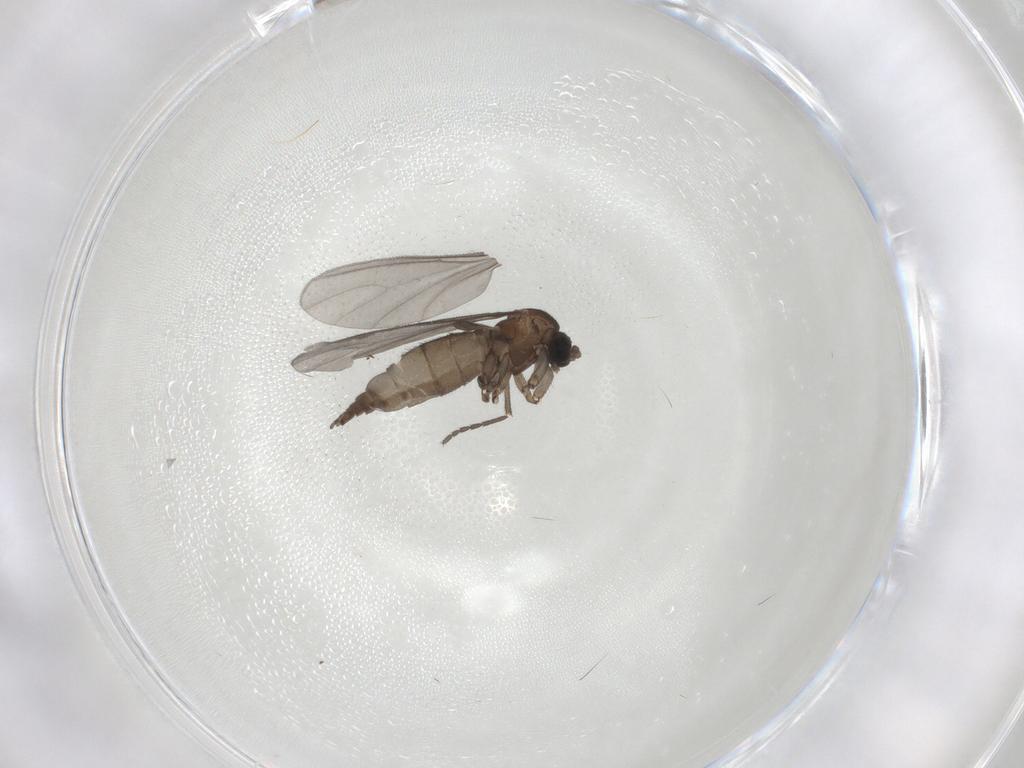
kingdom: Animalia
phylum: Arthropoda
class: Insecta
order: Diptera
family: Sciaridae
